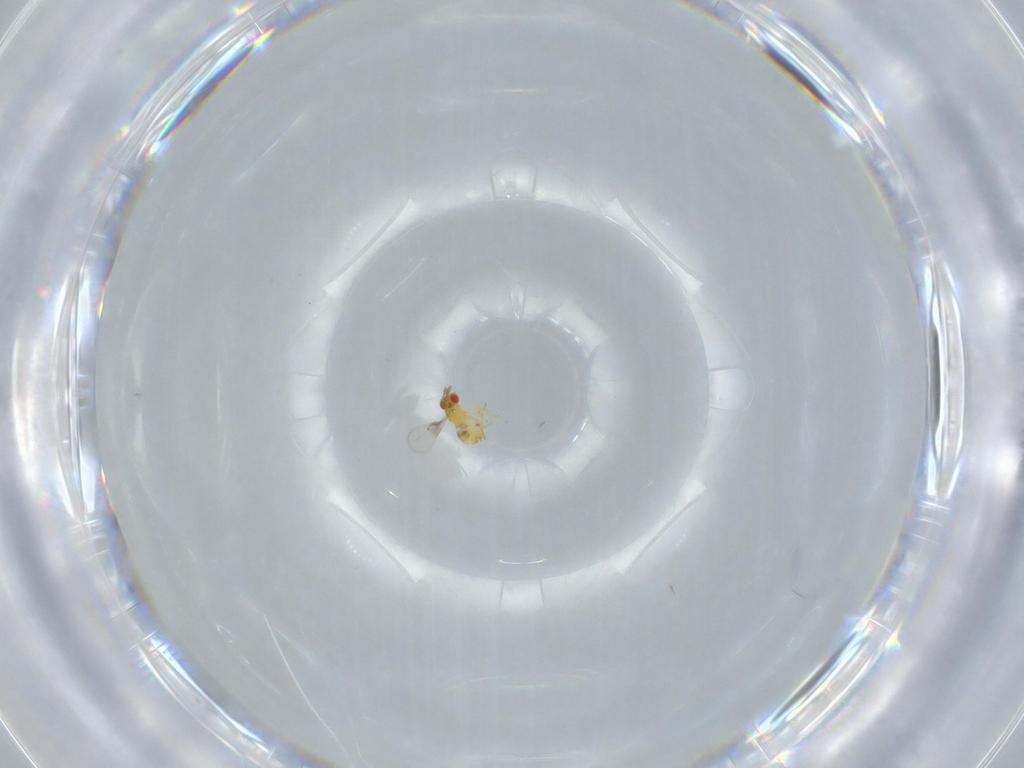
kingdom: Animalia
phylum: Arthropoda
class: Insecta
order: Hymenoptera
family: Trichogrammatidae
